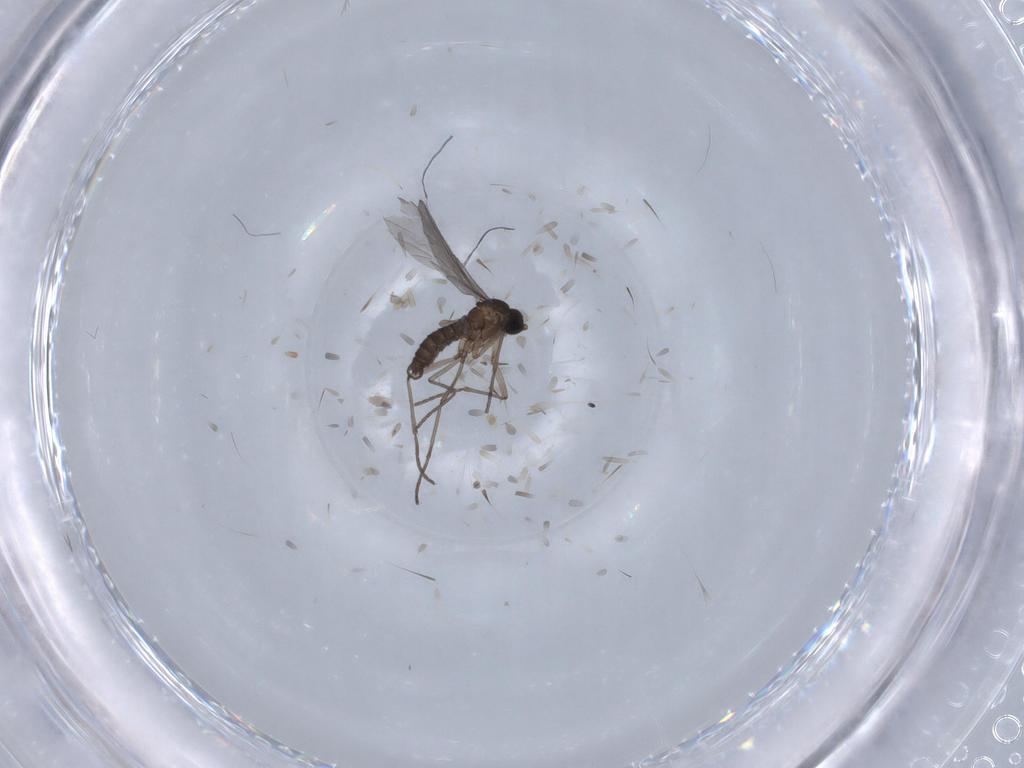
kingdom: Animalia
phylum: Arthropoda
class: Insecta
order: Diptera
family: Sciaridae
